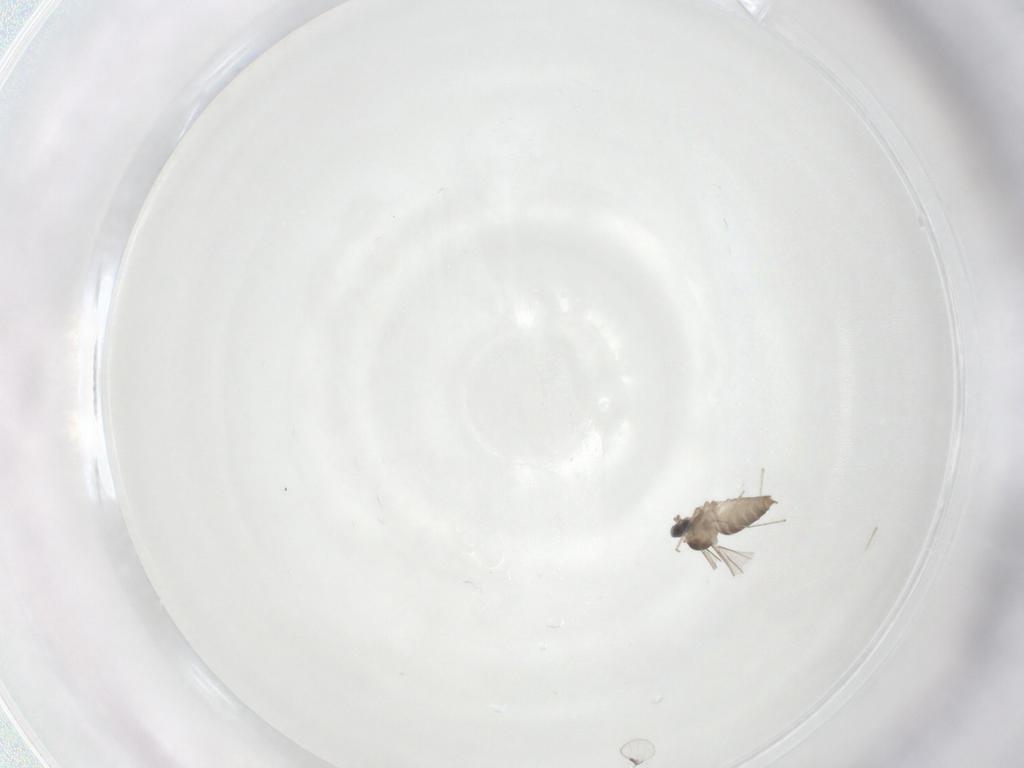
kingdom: Animalia
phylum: Arthropoda
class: Insecta
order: Diptera
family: Cecidomyiidae
